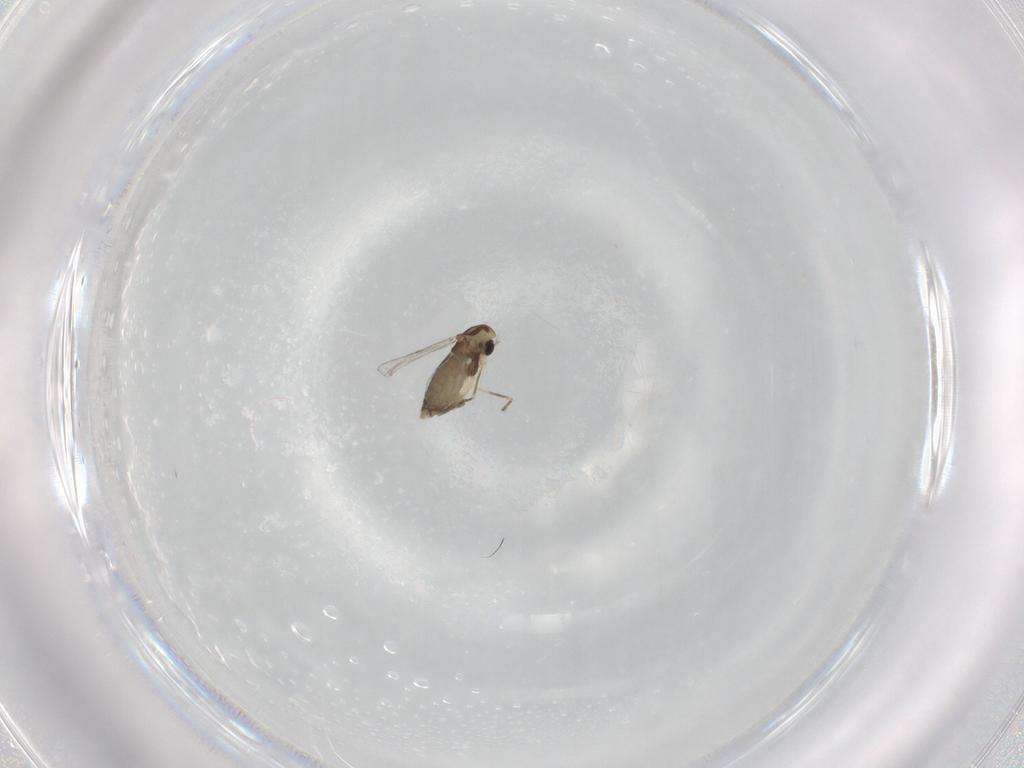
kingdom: Animalia
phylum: Arthropoda
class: Insecta
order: Diptera
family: Chironomidae
